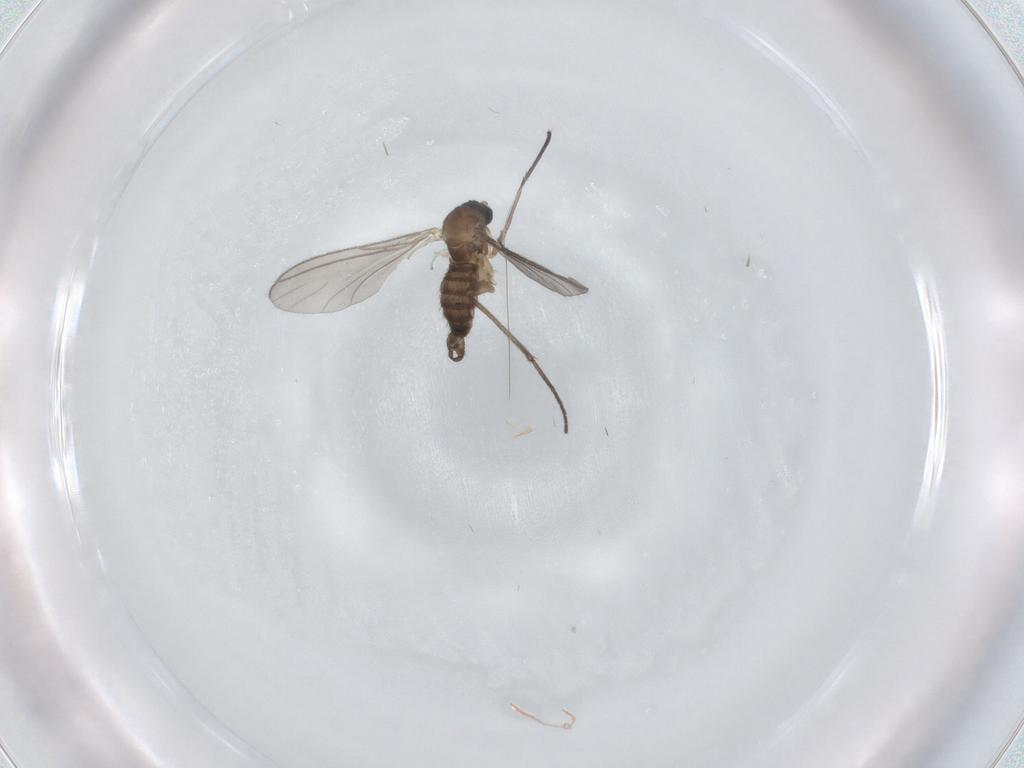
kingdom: Animalia
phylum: Arthropoda
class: Insecta
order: Diptera
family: Sciaridae
